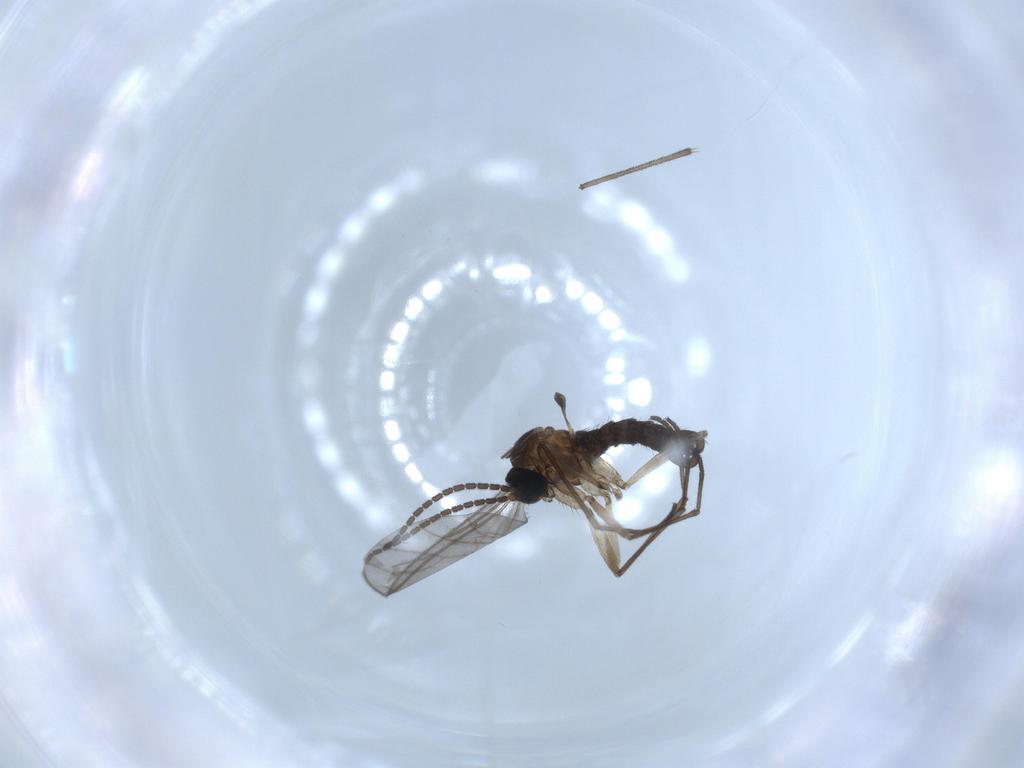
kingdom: Animalia
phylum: Arthropoda
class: Insecta
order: Diptera
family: Sciaridae
